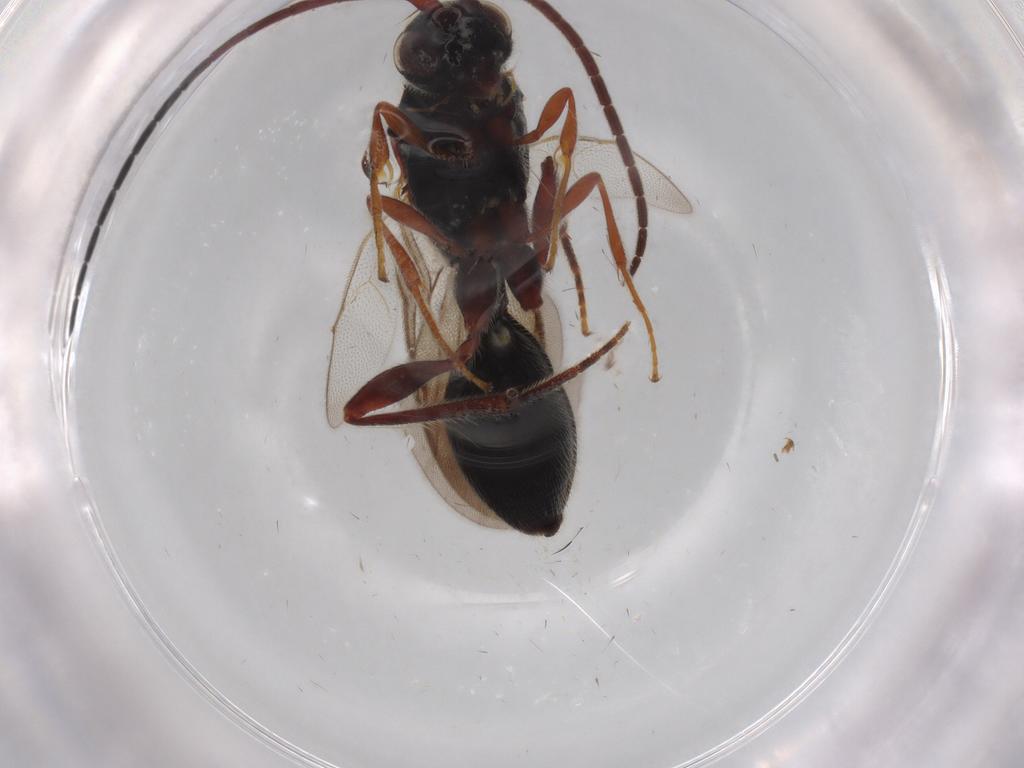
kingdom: Animalia
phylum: Arthropoda
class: Insecta
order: Hymenoptera
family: Diapriidae
